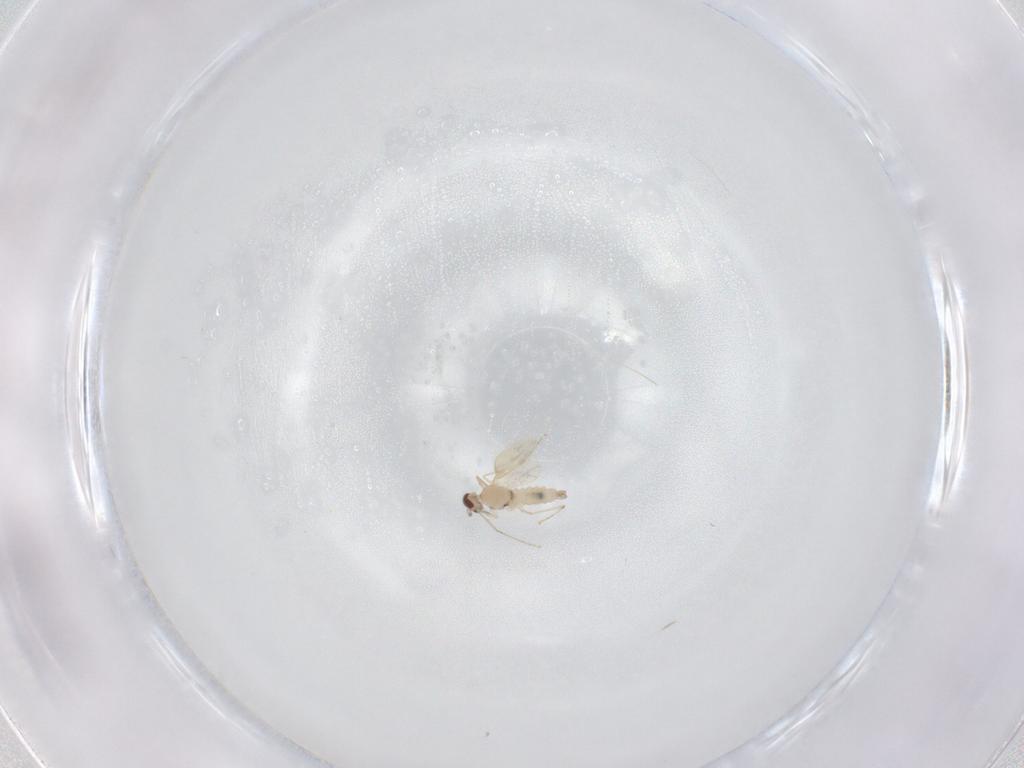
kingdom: Animalia
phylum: Arthropoda
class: Insecta
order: Diptera
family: Cecidomyiidae
